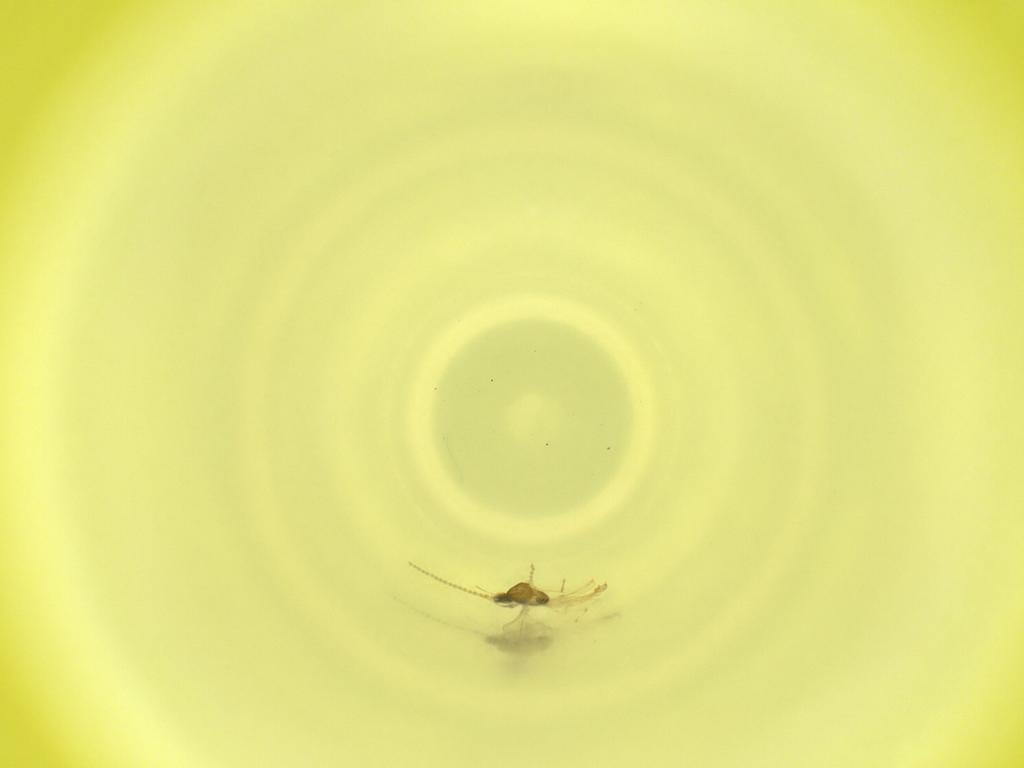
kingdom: Animalia
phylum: Arthropoda
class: Insecta
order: Diptera
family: Cecidomyiidae
